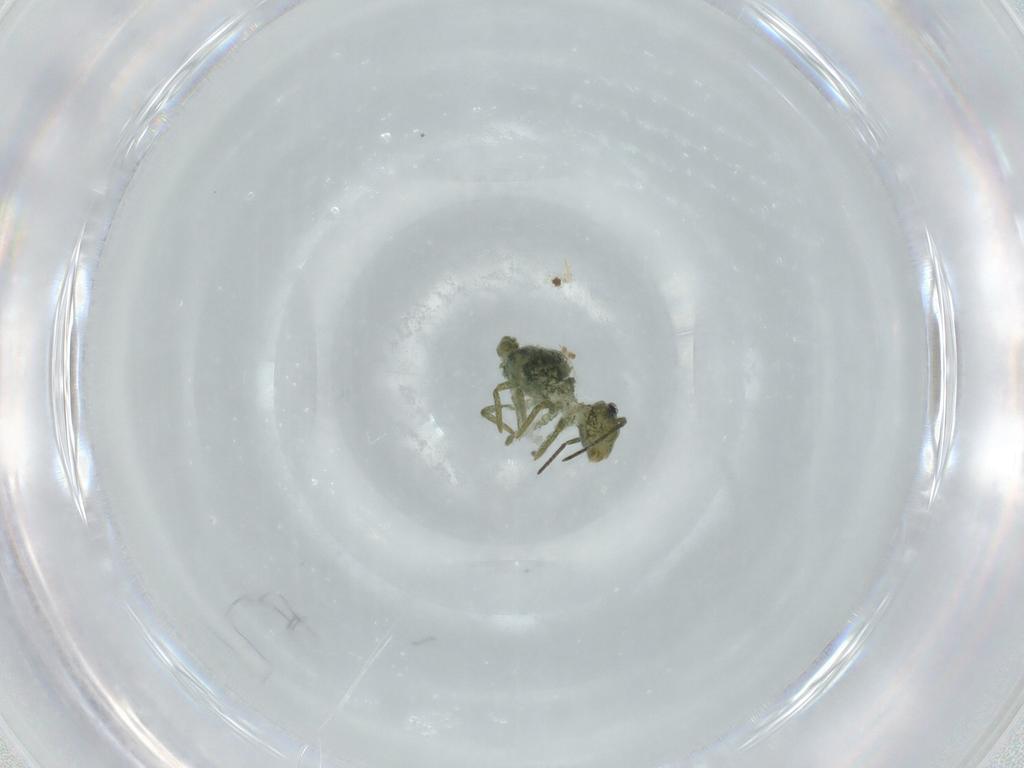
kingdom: Animalia
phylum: Arthropoda
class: Collembola
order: Symphypleona
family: Sminthuridae
